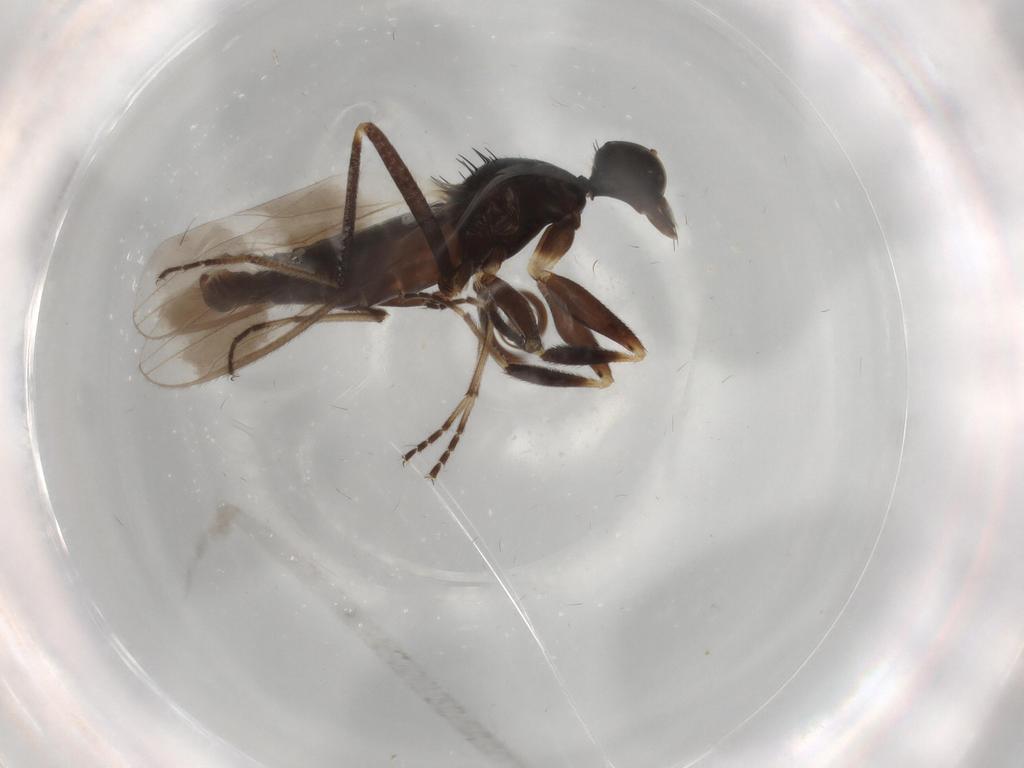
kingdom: Animalia
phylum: Arthropoda
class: Insecta
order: Diptera
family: Hybotidae
